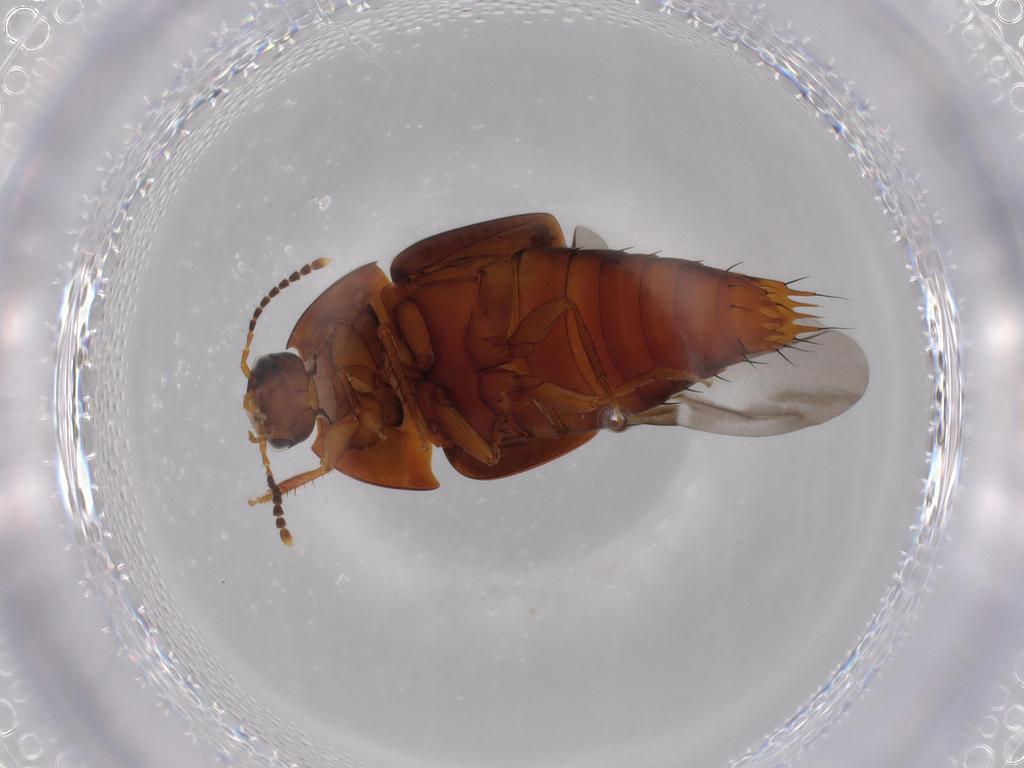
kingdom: Animalia
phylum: Arthropoda
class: Insecta
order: Coleoptera
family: Staphylinidae
